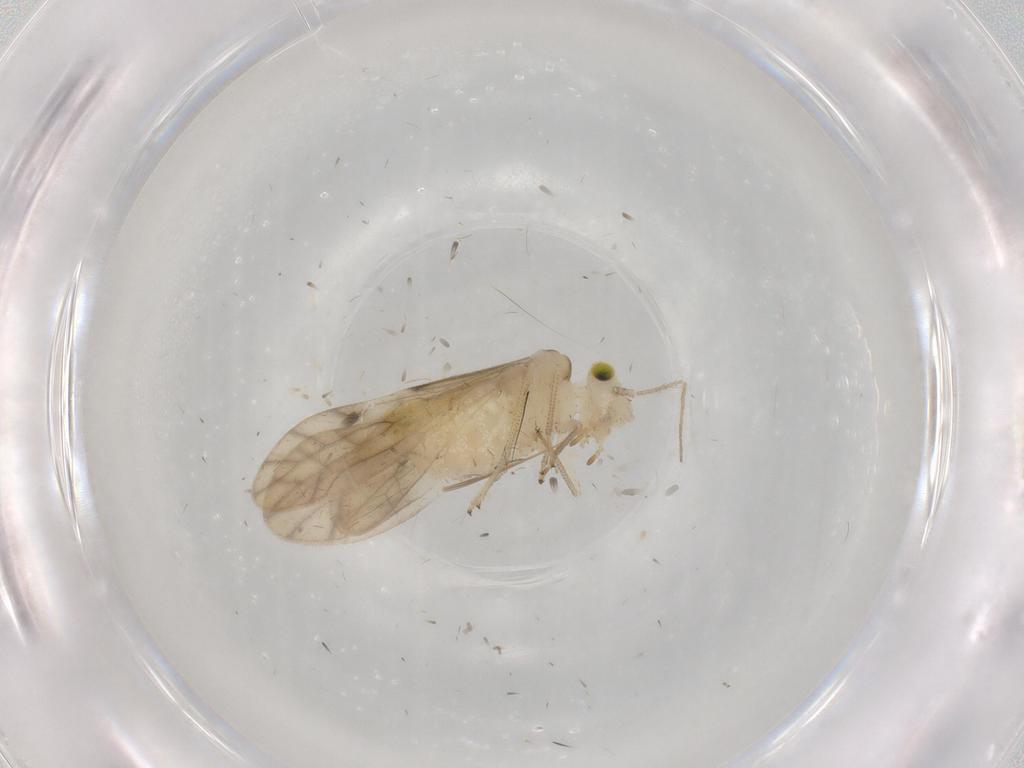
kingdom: Animalia
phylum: Arthropoda
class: Insecta
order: Psocodea
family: Caeciliusidae
